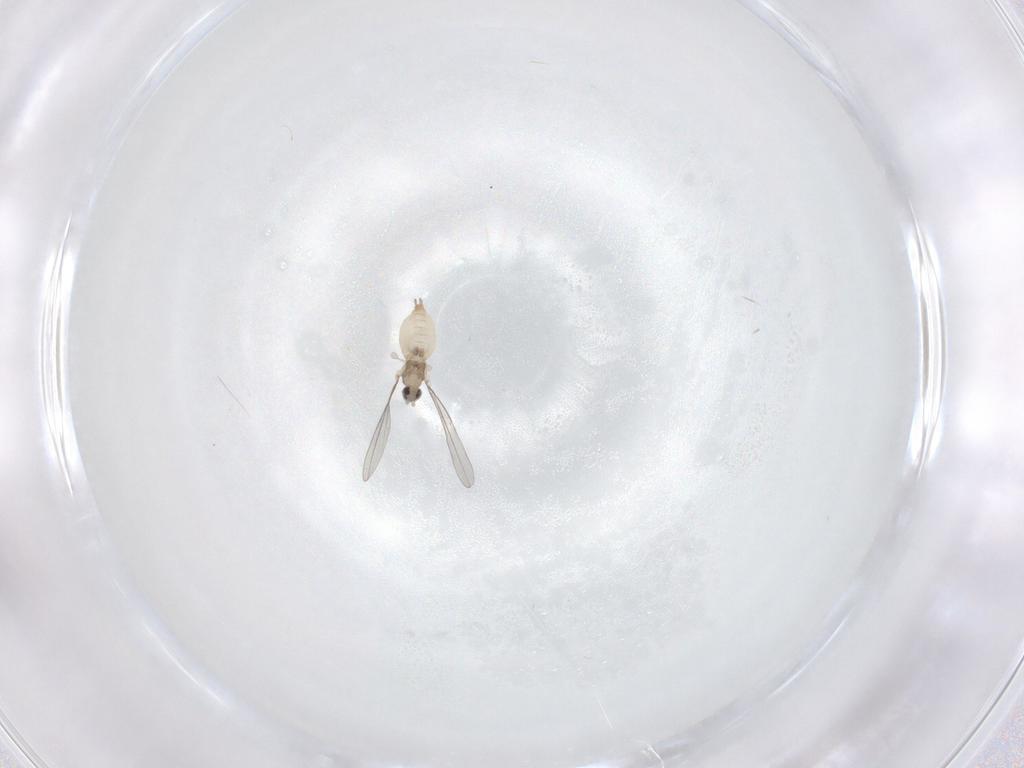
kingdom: Animalia
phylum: Arthropoda
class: Insecta
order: Diptera
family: Cecidomyiidae
